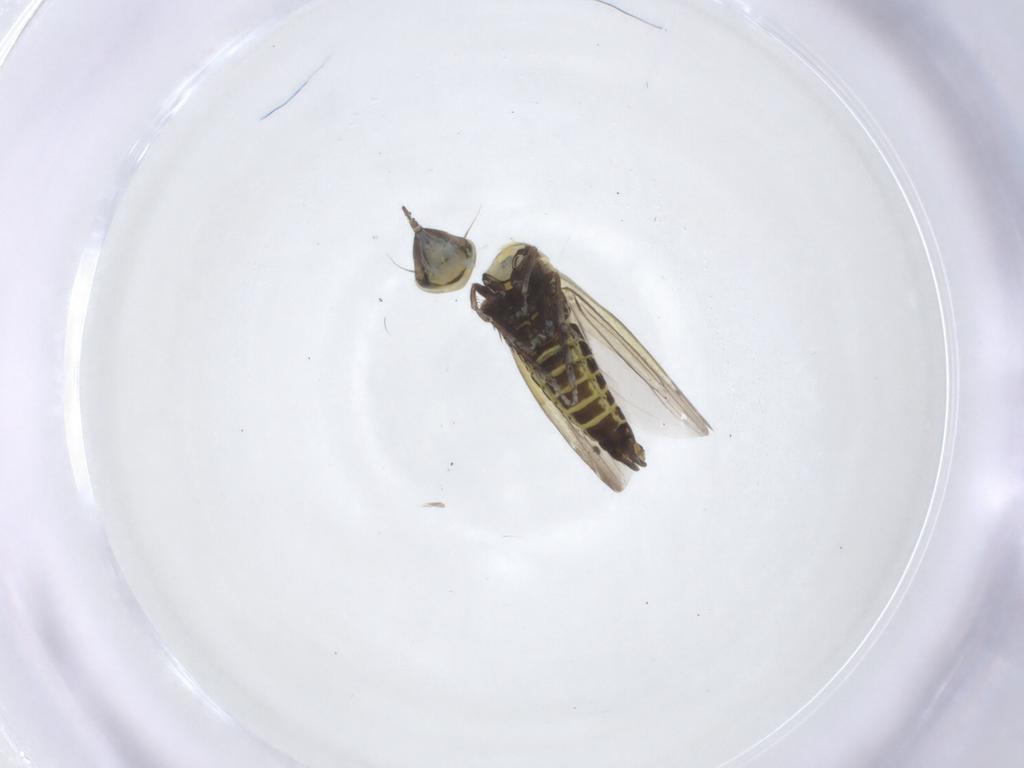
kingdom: Animalia
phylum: Arthropoda
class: Insecta
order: Hemiptera
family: Cicadellidae
